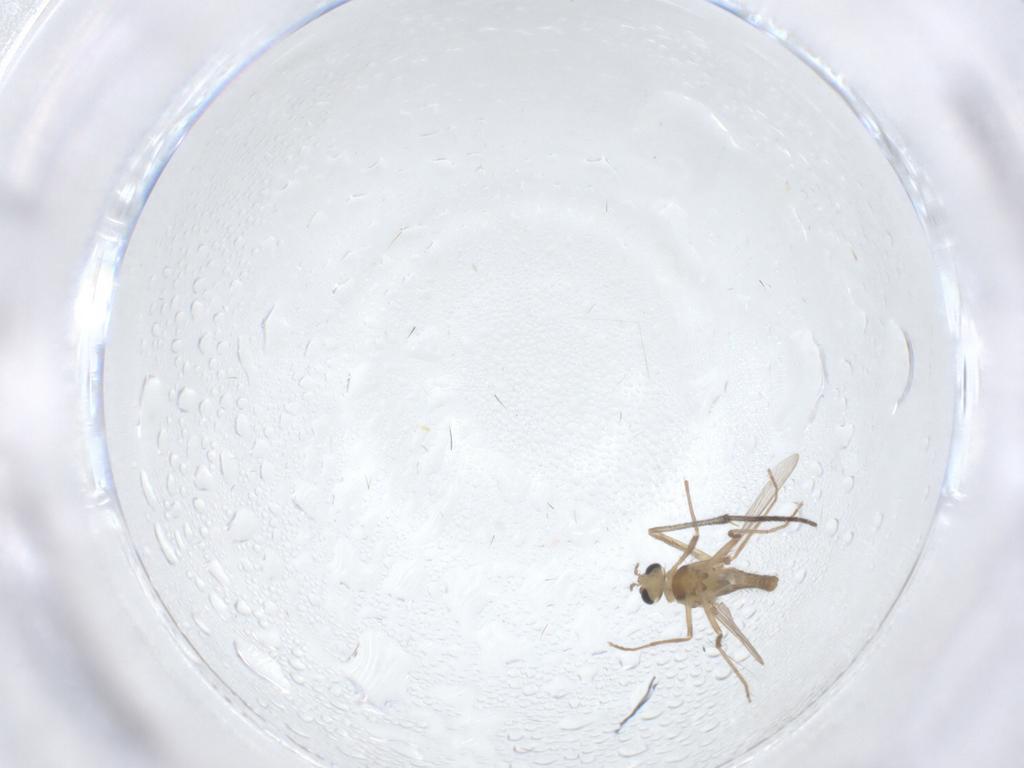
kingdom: Animalia
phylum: Arthropoda
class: Insecta
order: Diptera
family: Chironomidae
